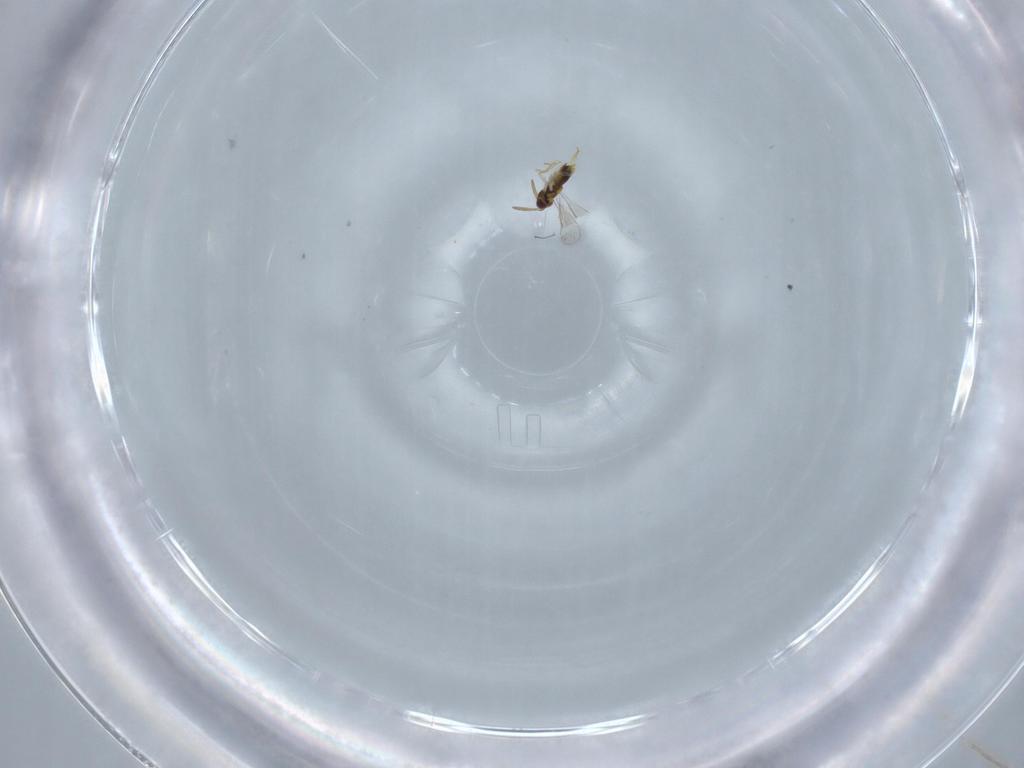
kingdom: Animalia
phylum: Arthropoda
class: Insecta
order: Hymenoptera
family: Aphelinidae
